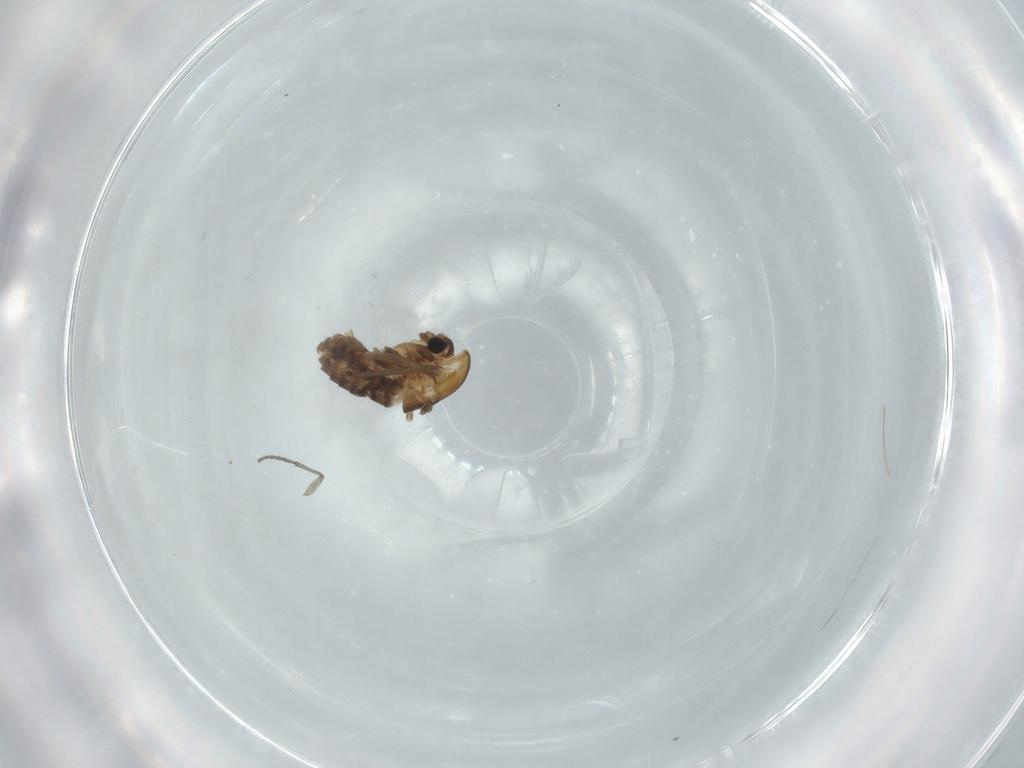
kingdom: Animalia
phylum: Arthropoda
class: Insecta
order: Diptera
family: Chironomidae
